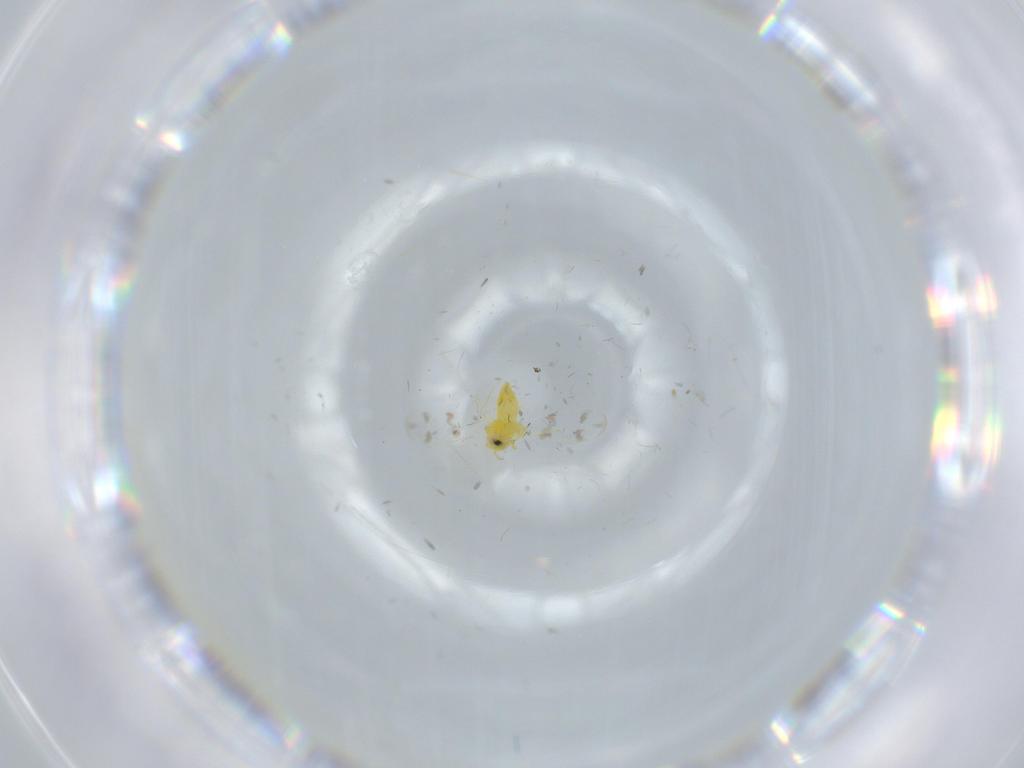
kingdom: Animalia
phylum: Arthropoda
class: Insecta
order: Hemiptera
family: Aleyrodidae
